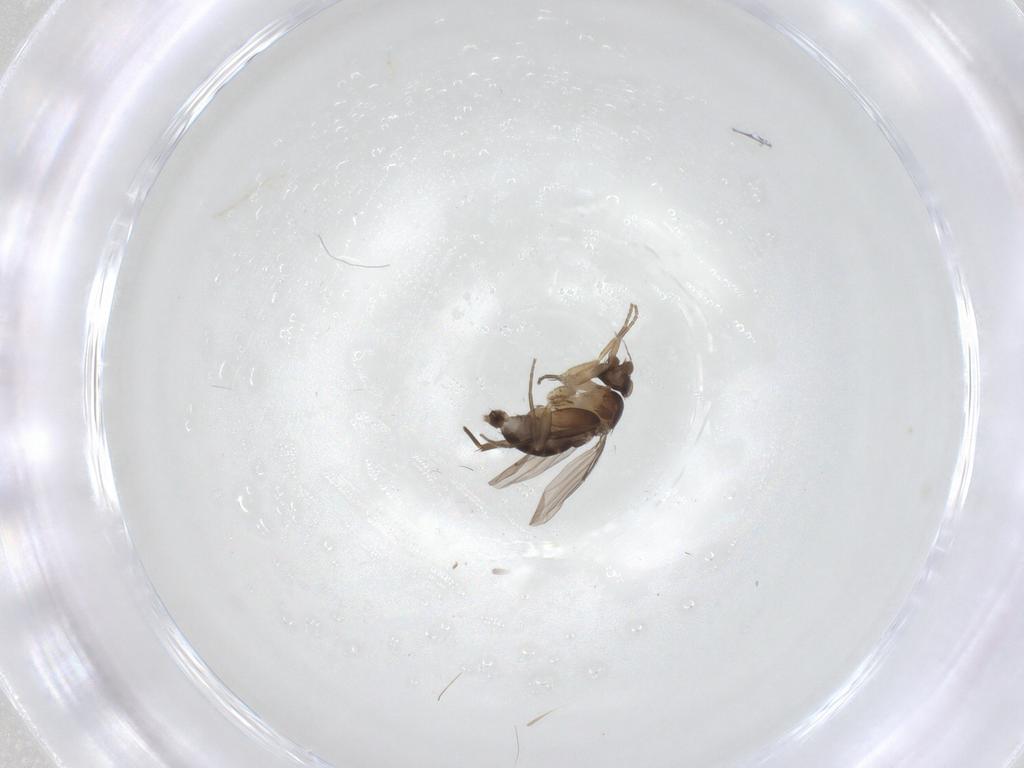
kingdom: Animalia
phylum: Arthropoda
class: Insecta
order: Diptera
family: Phoridae
